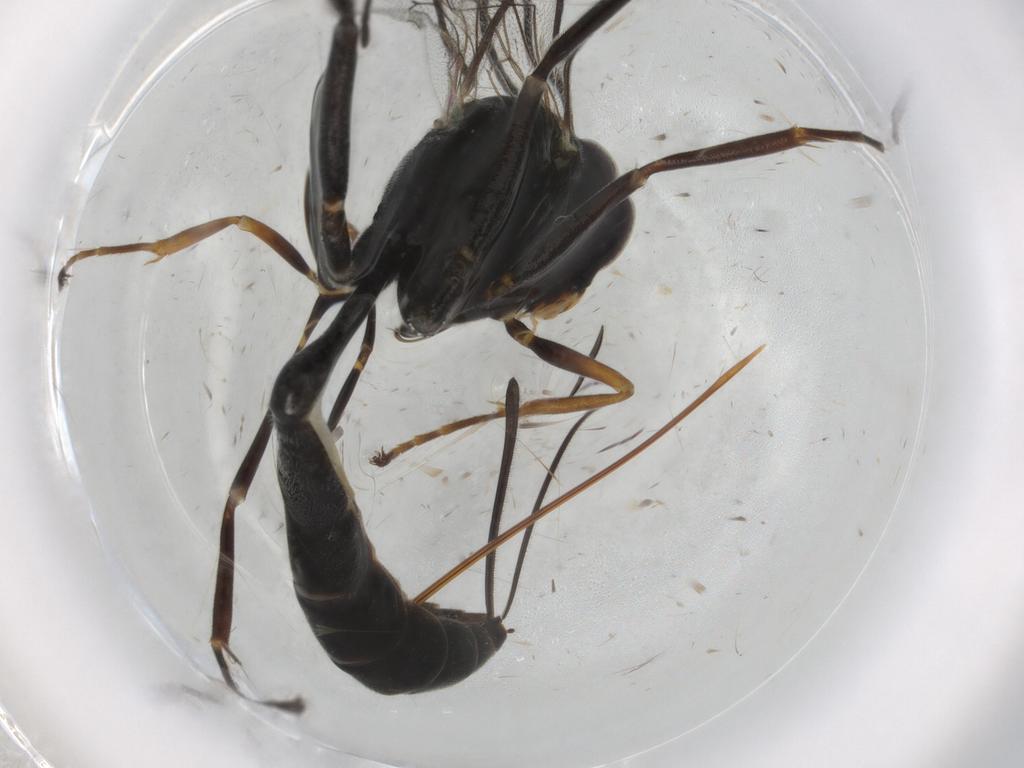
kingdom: Animalia
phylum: Arthropoda
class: Insecta
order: Hymenoptera
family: Ichneumonidae
